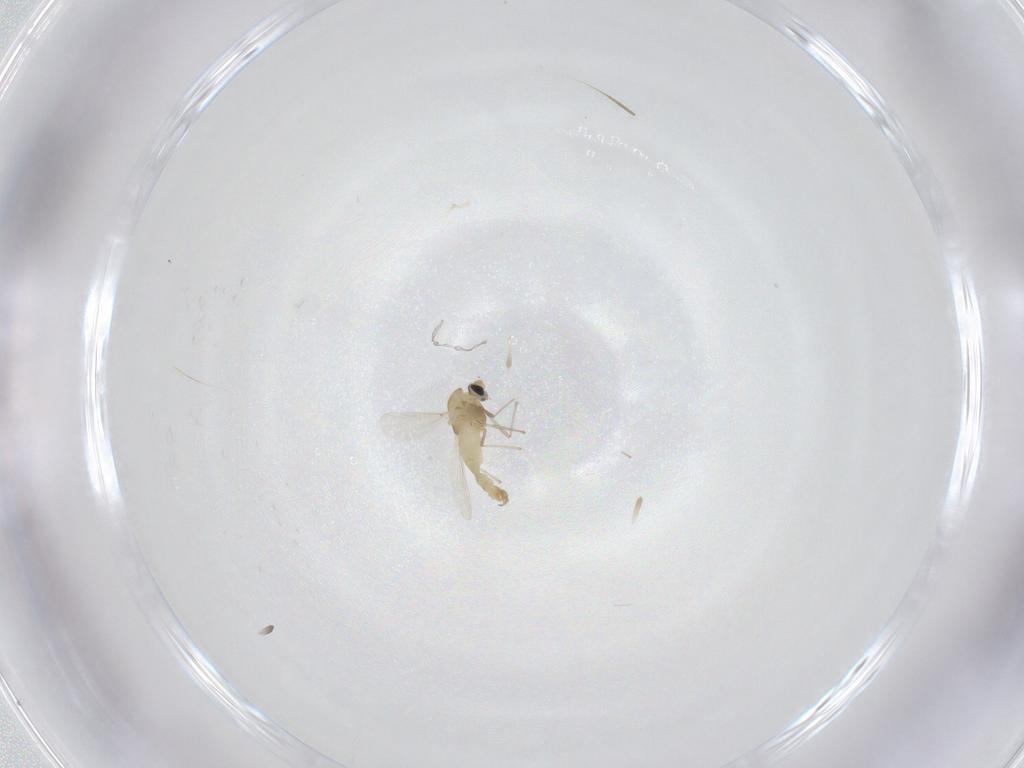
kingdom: Animalia
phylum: Arthropoda
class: Insecta
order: Diptera
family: Chironomidae
